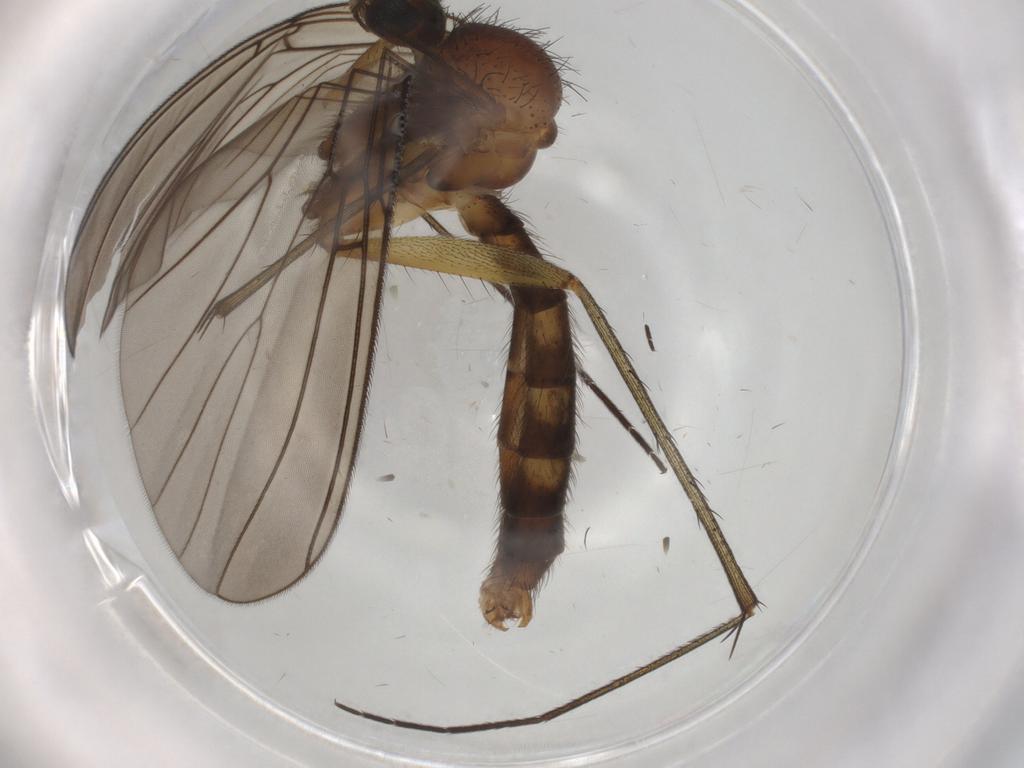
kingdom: Animalia
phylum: Arthropoda
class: Insecta
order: Diptera
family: Mycetophilidae
